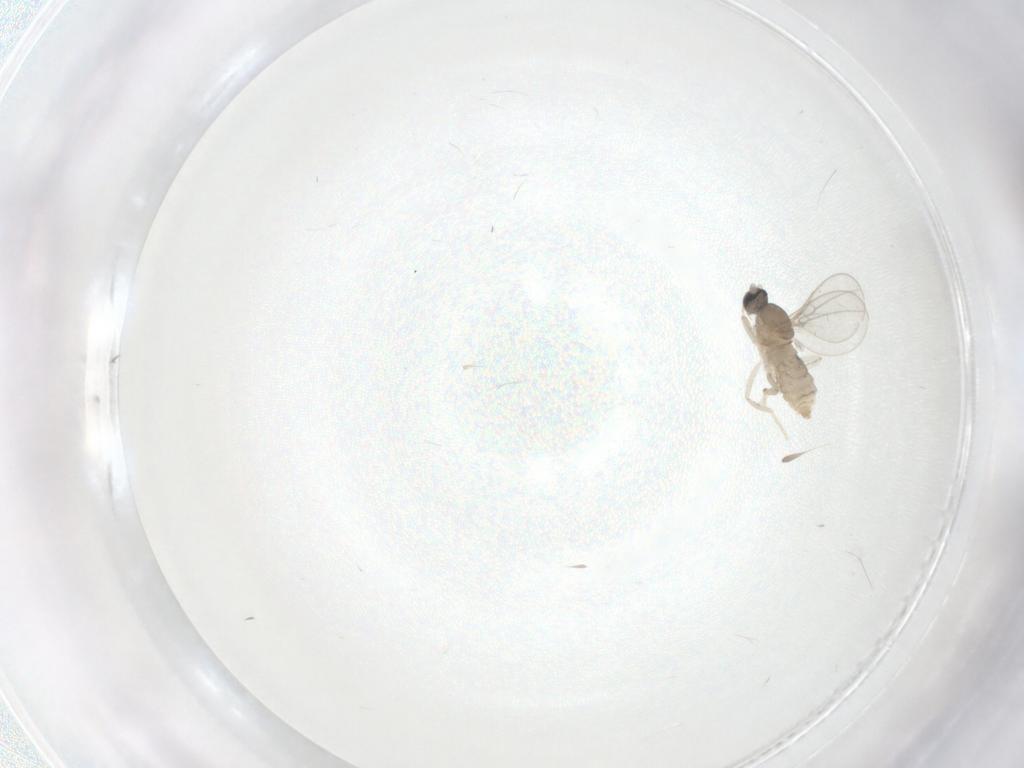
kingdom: Animalia
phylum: Arthropoda
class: Insecta
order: Diptera
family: Cecidomyiidae
